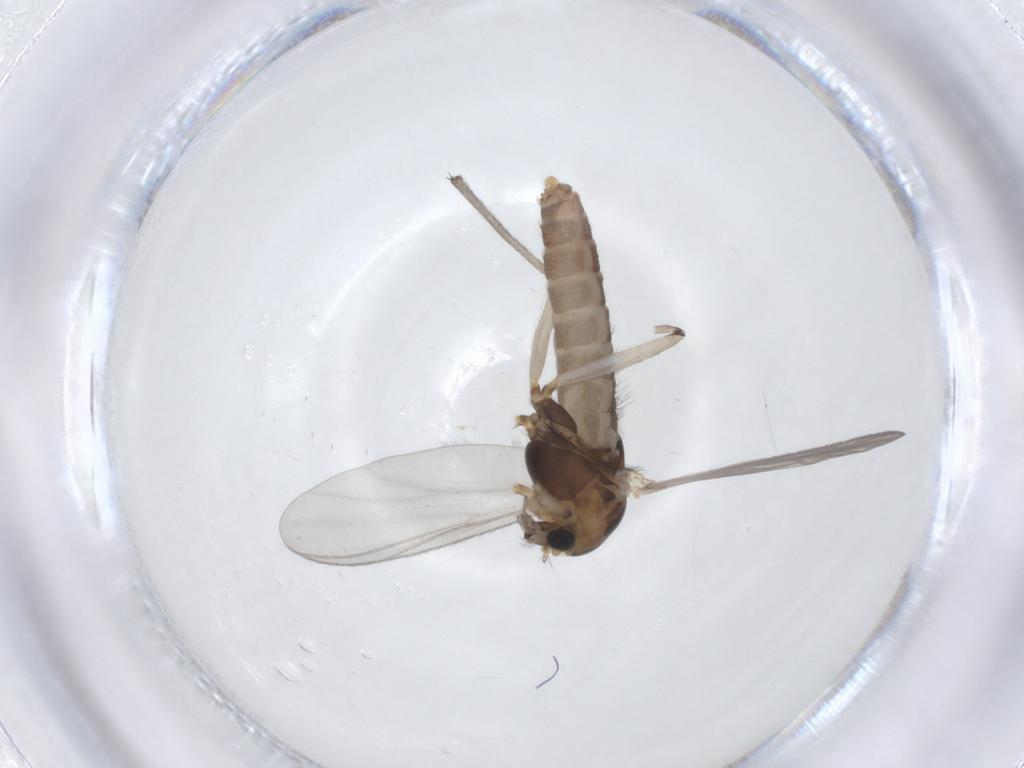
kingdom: Animalia
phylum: Arthropoda
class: Insecta
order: Diptera
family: Chironomidae
